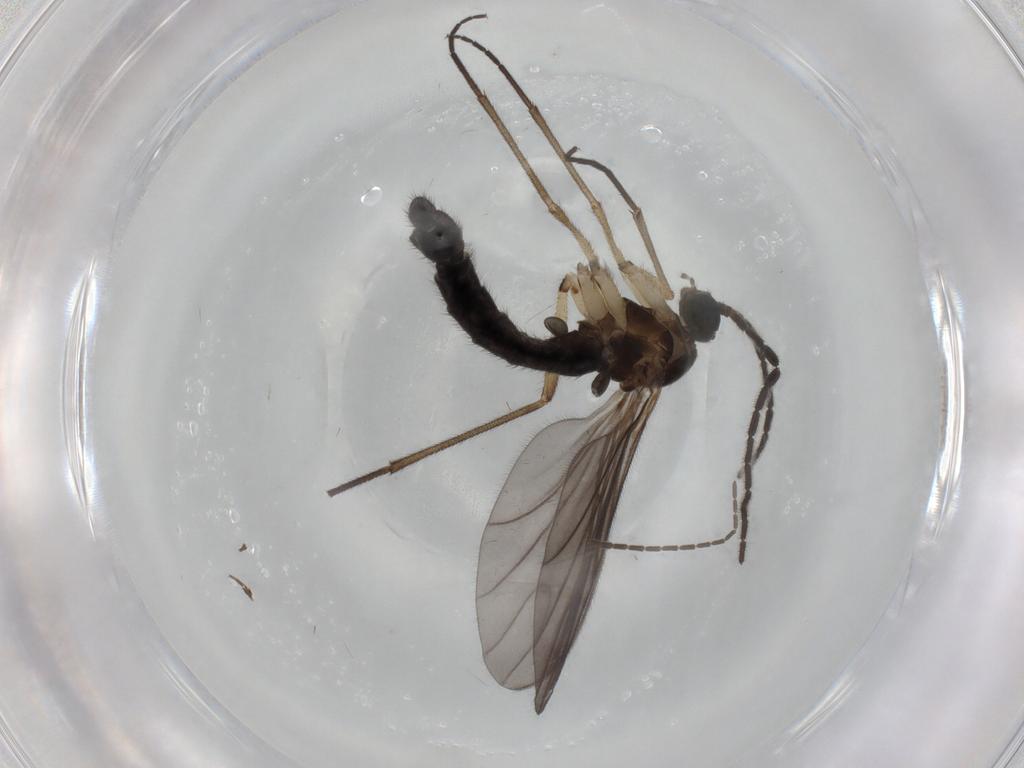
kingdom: Animalia
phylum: Arthropoda
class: Insecta
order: Diptera
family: Sciaridae
